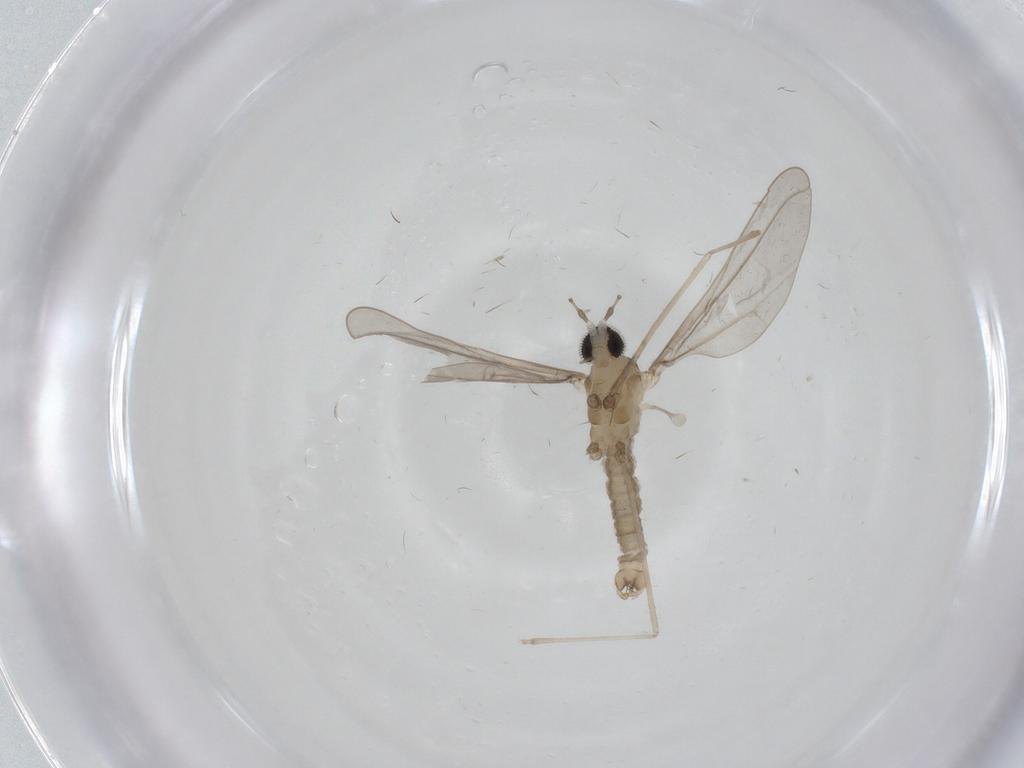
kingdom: Animalia
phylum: Arthropoda
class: Insecta
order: Diptera
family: Cecidomyiidae
